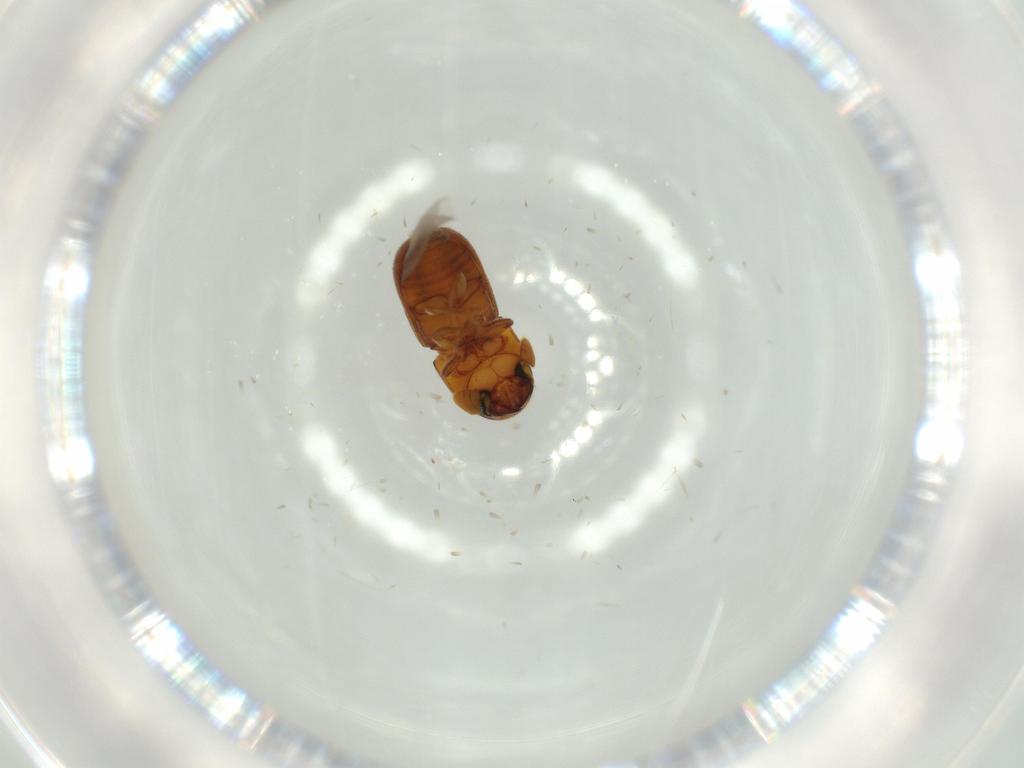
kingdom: Animalia
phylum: Arthropoda
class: Insecta
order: Coleoptera
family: Curculionidae
